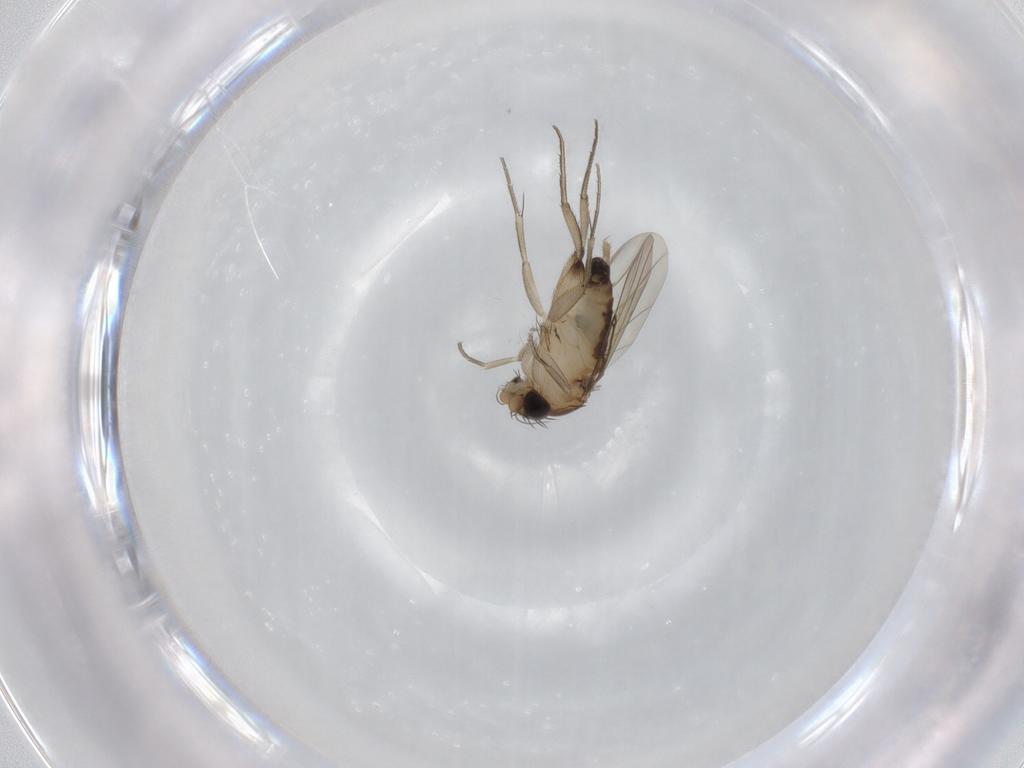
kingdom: Animalia
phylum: Arthropoda
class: Insecta
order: Diptera
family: Phoridae
